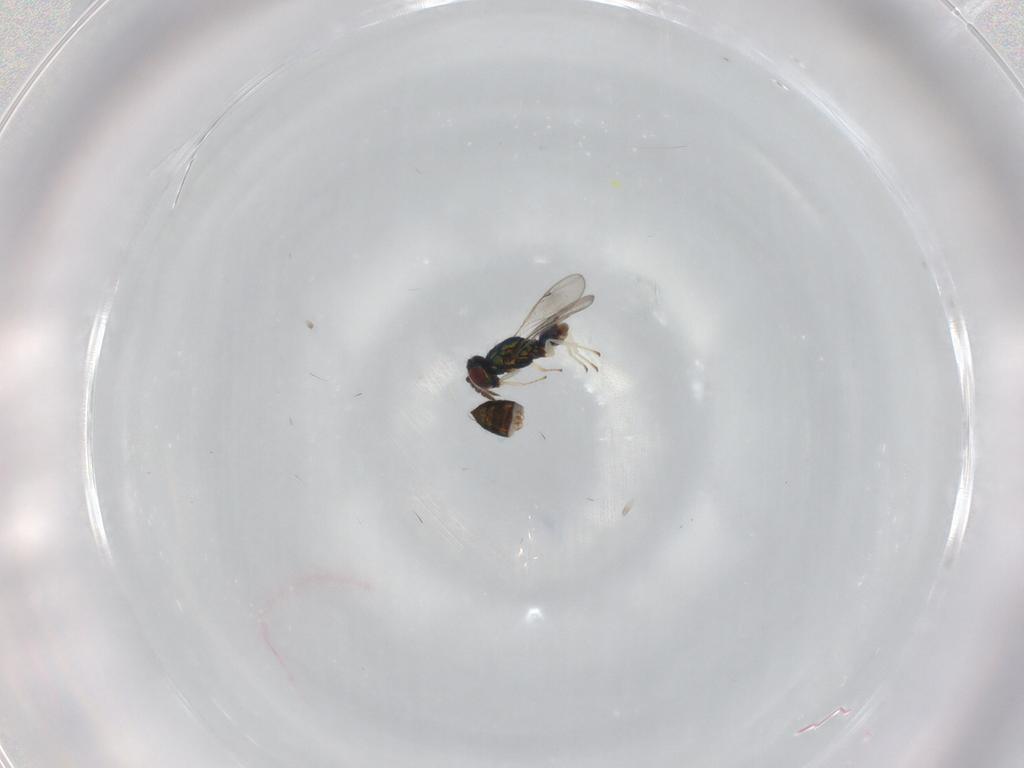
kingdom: Animalia
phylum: Arthropoda
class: Insecta
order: Hymenoptera
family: Eulophidae
